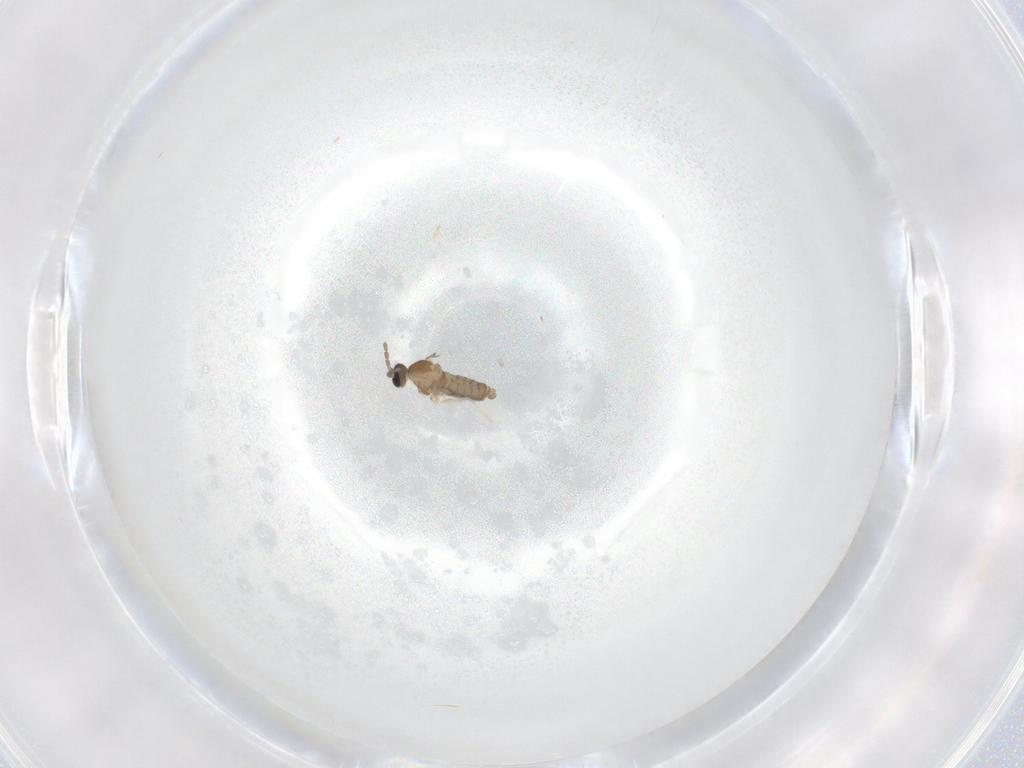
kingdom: Animalia
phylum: Arthropoda
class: Insecta
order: Diptera
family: Cecidomyiidae
